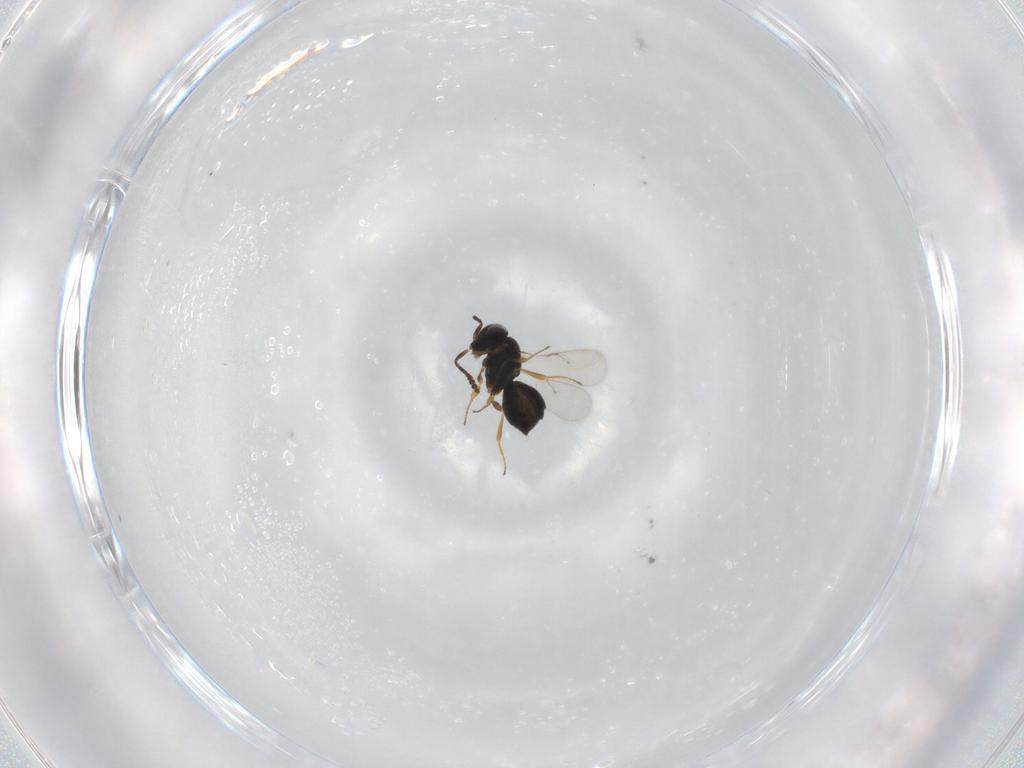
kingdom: Animalia
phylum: Arthropoda
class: Insecta
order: Hymenoptera
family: Scelionidae
